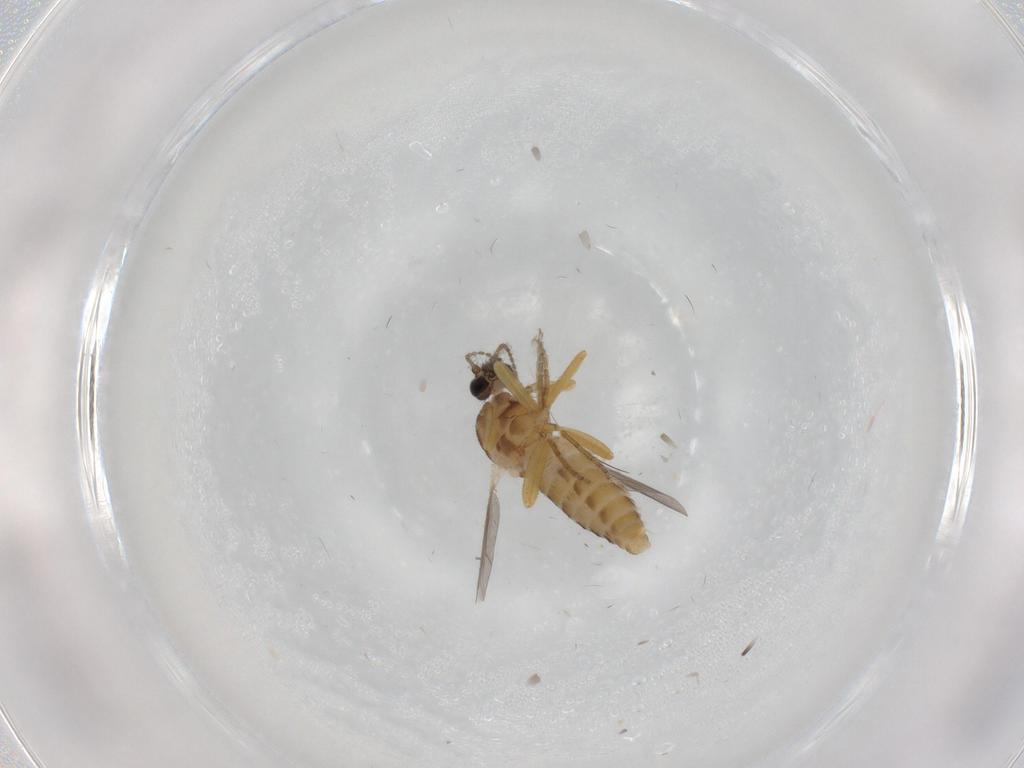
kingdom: Animalia
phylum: Arthropoda
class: Insecta
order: Diptera
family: Ceratopogonidae
